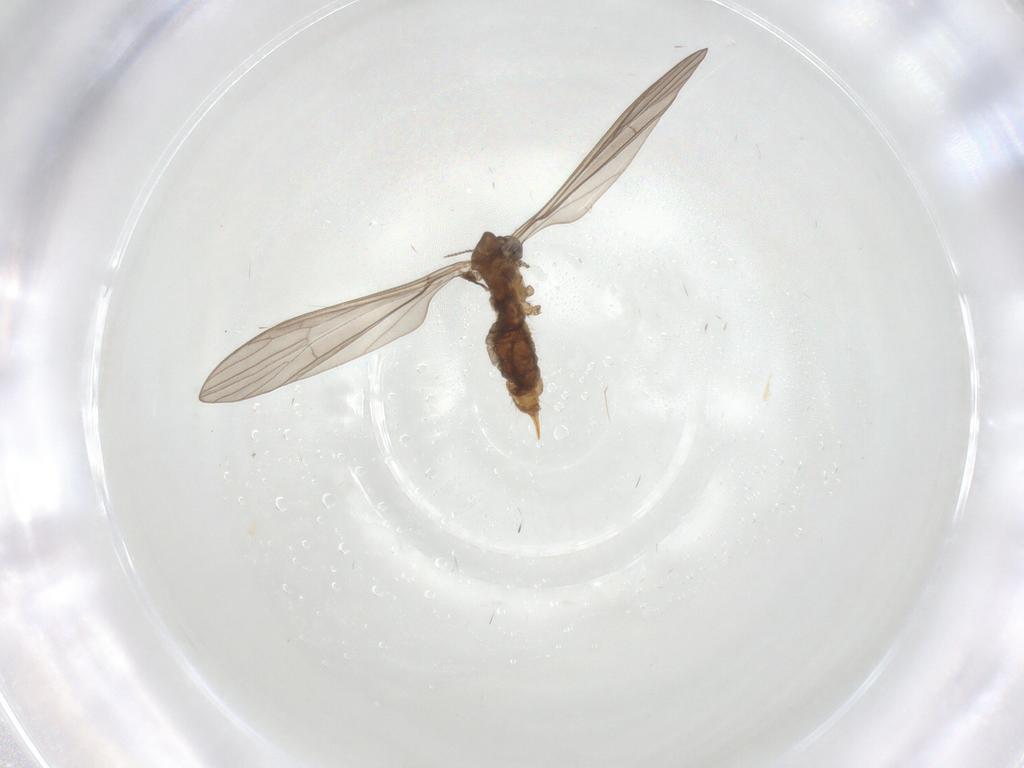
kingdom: Animalia
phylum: Arthropoda
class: Insecta
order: Diptera
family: Limoniidae
